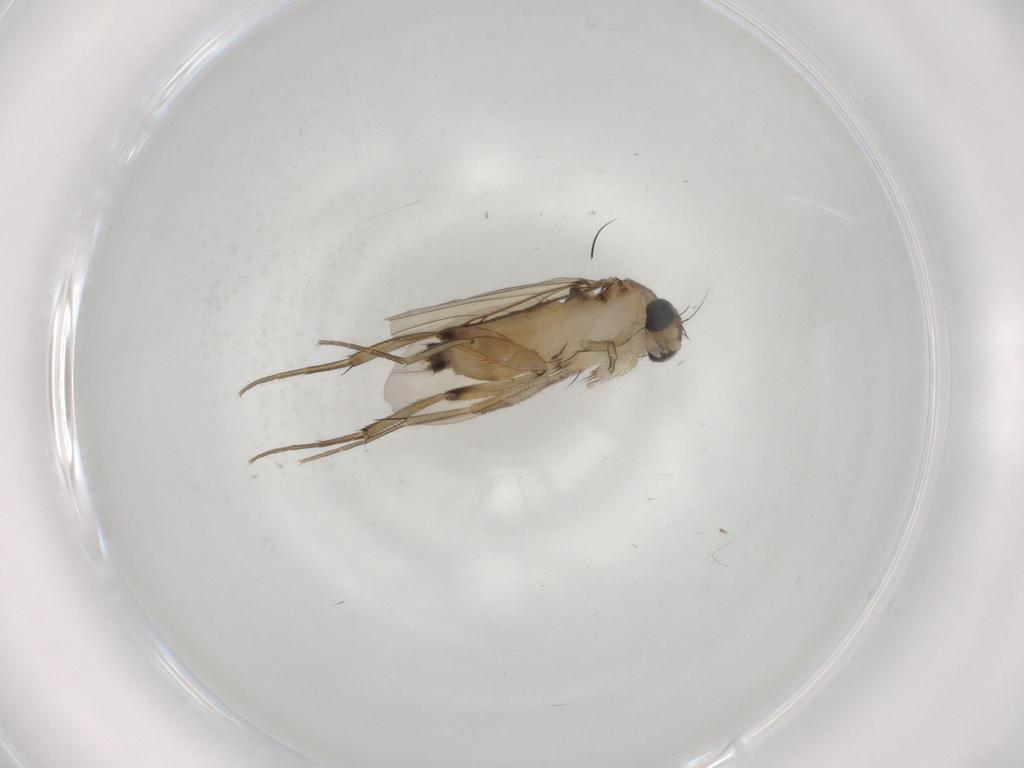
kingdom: Animalia
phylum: Arthropoda
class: Insecta
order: Diptera
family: Phoridae
